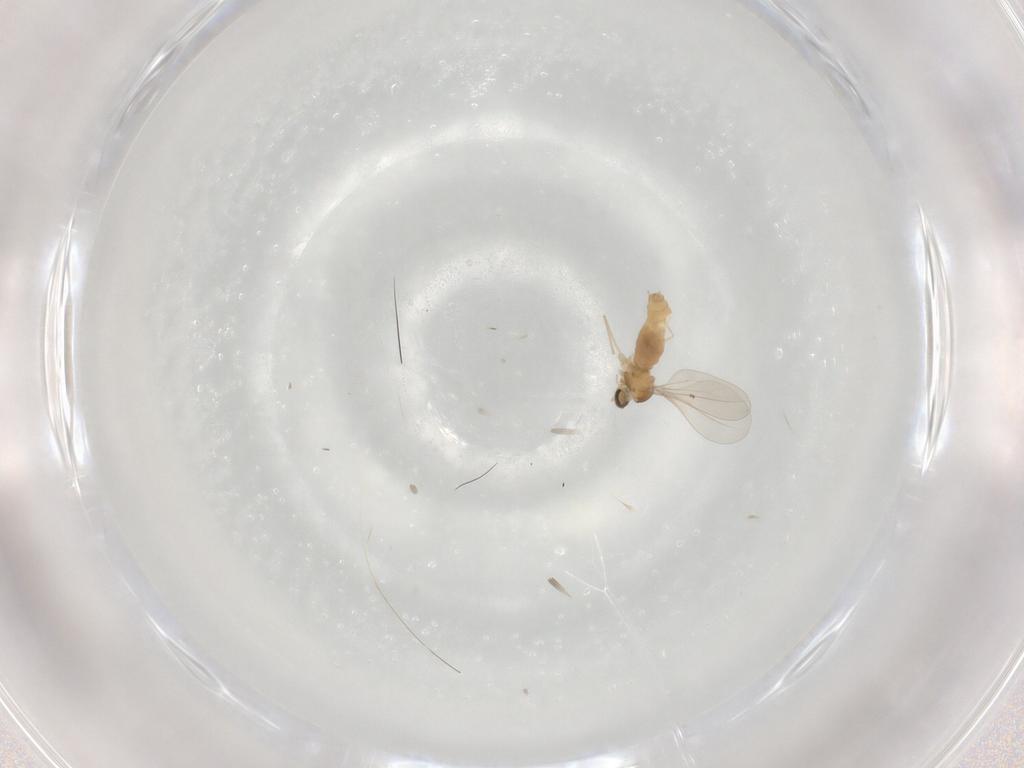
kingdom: Animalia
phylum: Arthropoda
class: Insecta
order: Diptera
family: Cecidomyiidae
